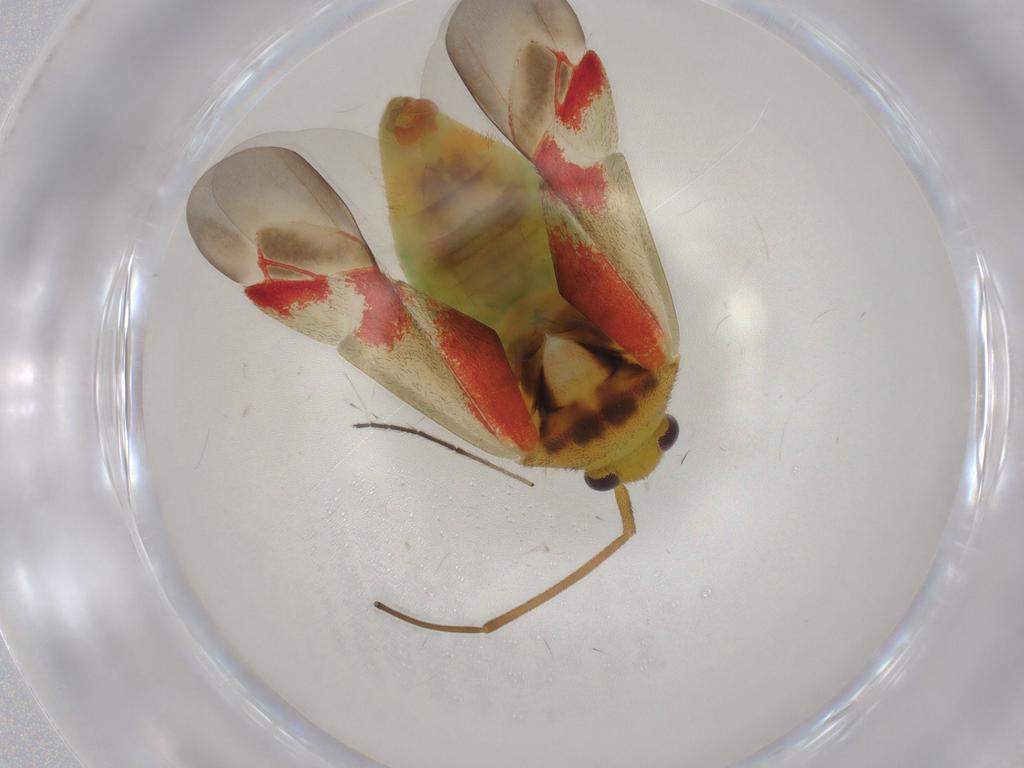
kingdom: Animalia
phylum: Arthropoda
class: Insecta
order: Hemiptera
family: Miridae
